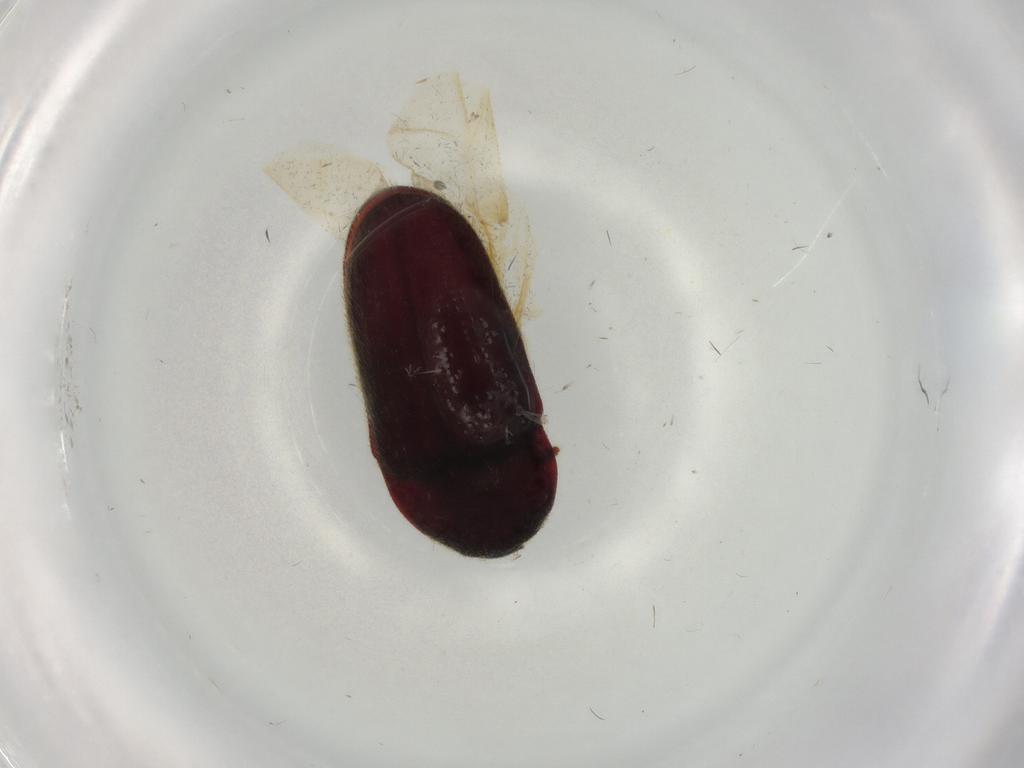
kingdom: Animalia
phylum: Arthropoda
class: Insecta
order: Coleoptera
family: Throscidae
